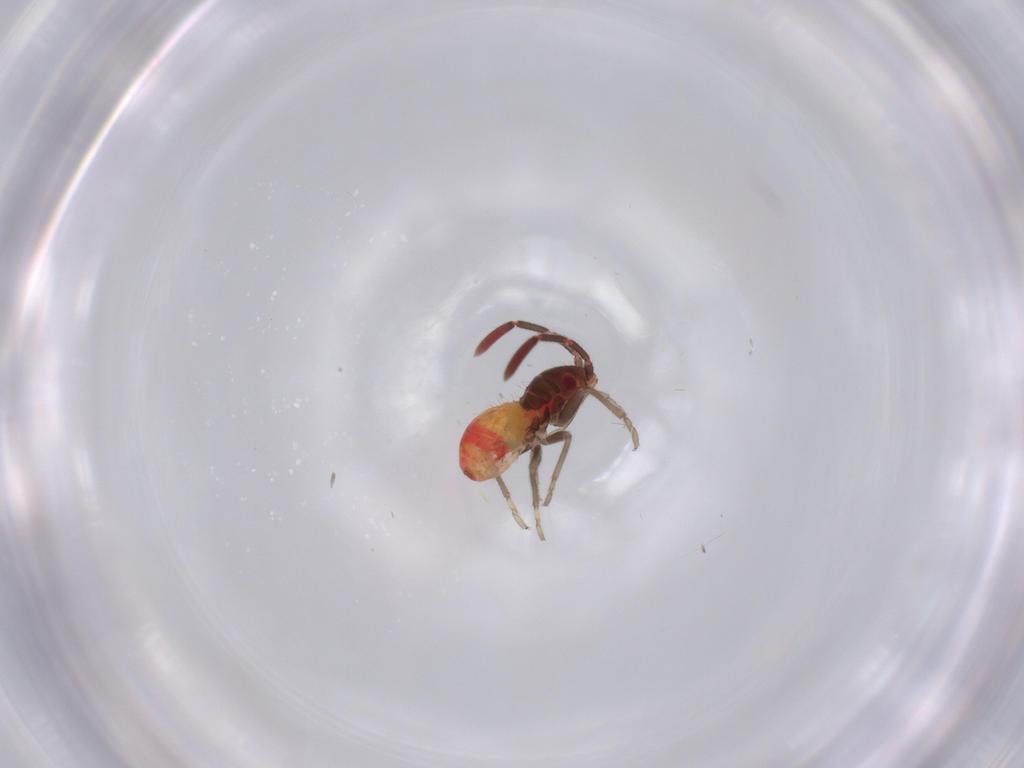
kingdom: Animalia
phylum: Arthropoda
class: Insecta
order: Hemiptera
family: Rhyparochromidae
